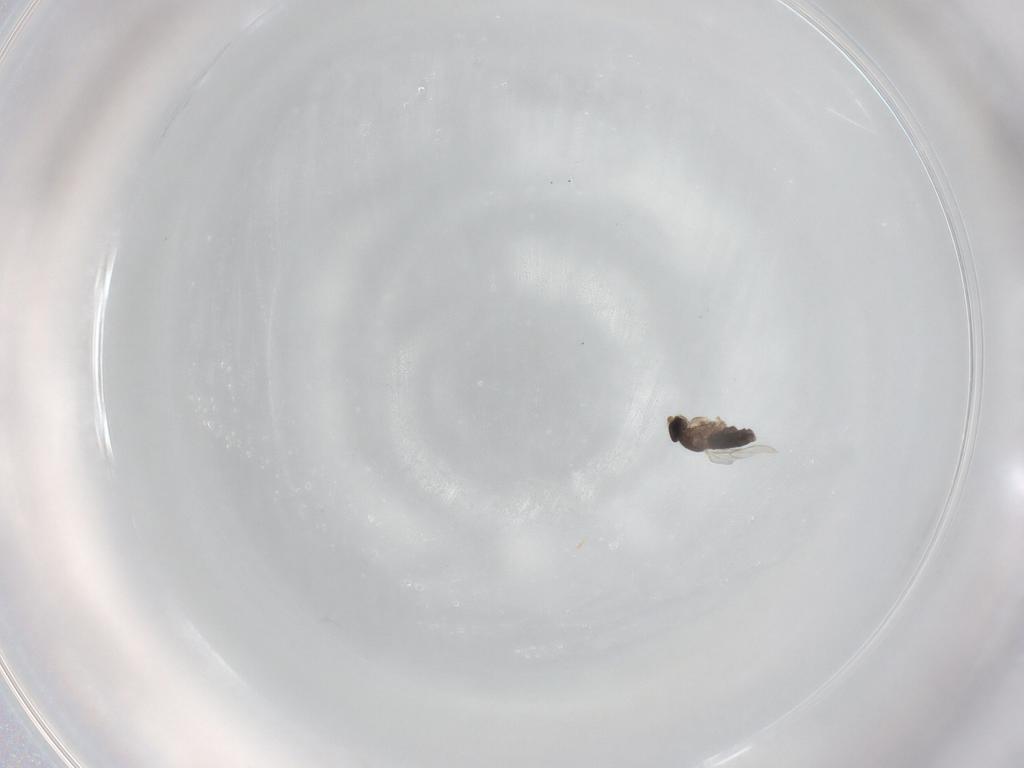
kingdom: Animalia
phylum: Arthropoda
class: Insecta
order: Diptera
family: Phoridae
